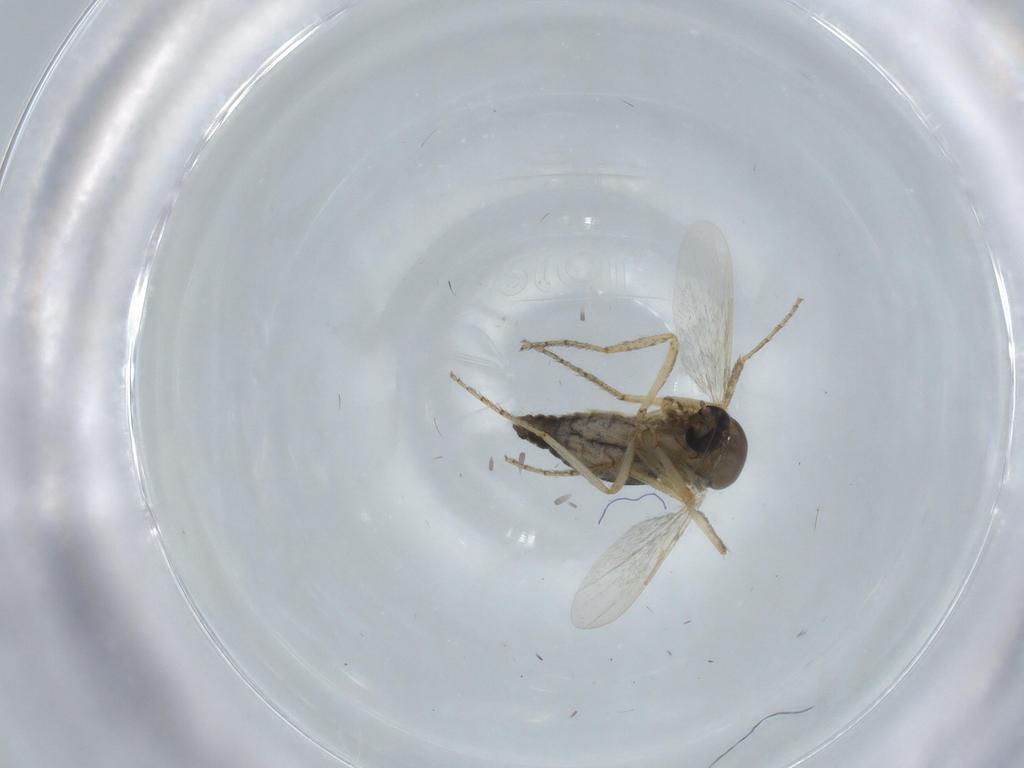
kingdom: Animalia
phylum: Arthropoda
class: Insecta
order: Diptera
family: Ceratopogonidae
